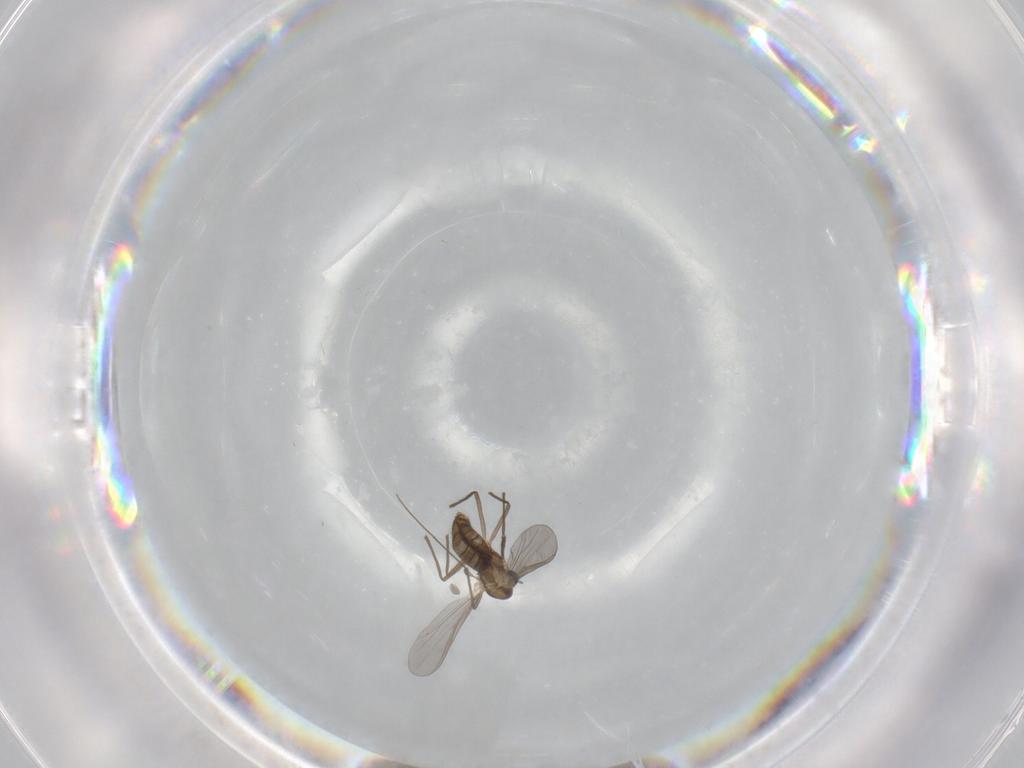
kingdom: Animalia
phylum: Arthropoda
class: Insecta
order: Diptera
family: Phoridae
